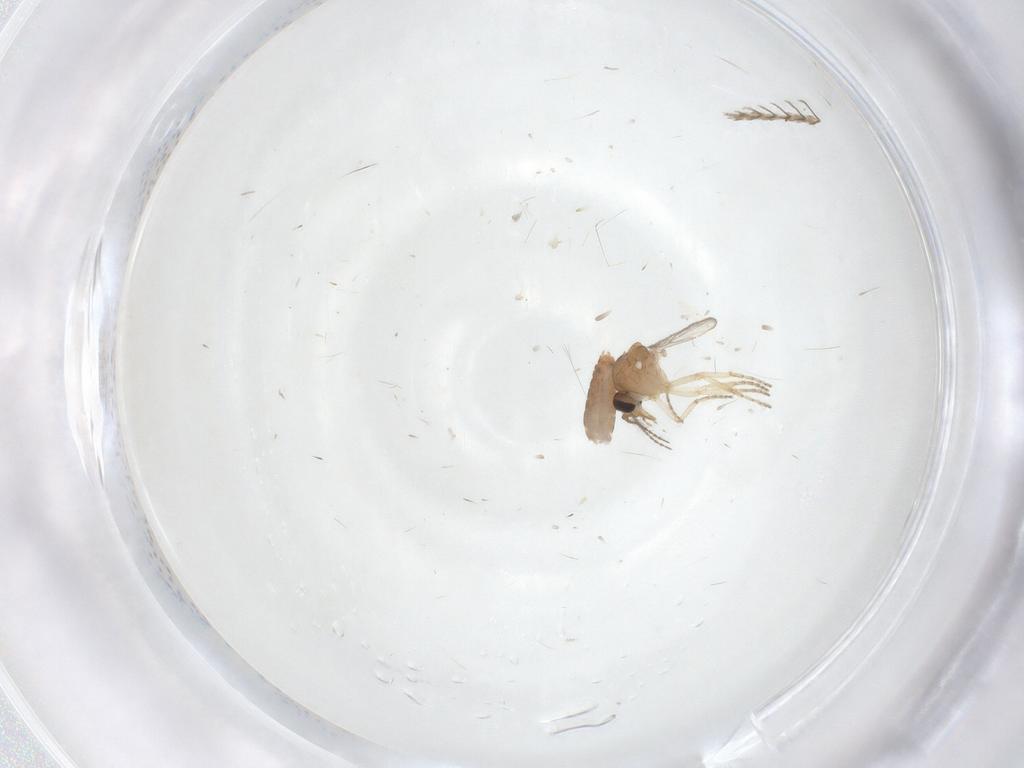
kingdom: Animalia
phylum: Arthropoda
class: Insecta
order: Diptera
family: Ceratopogonidae
